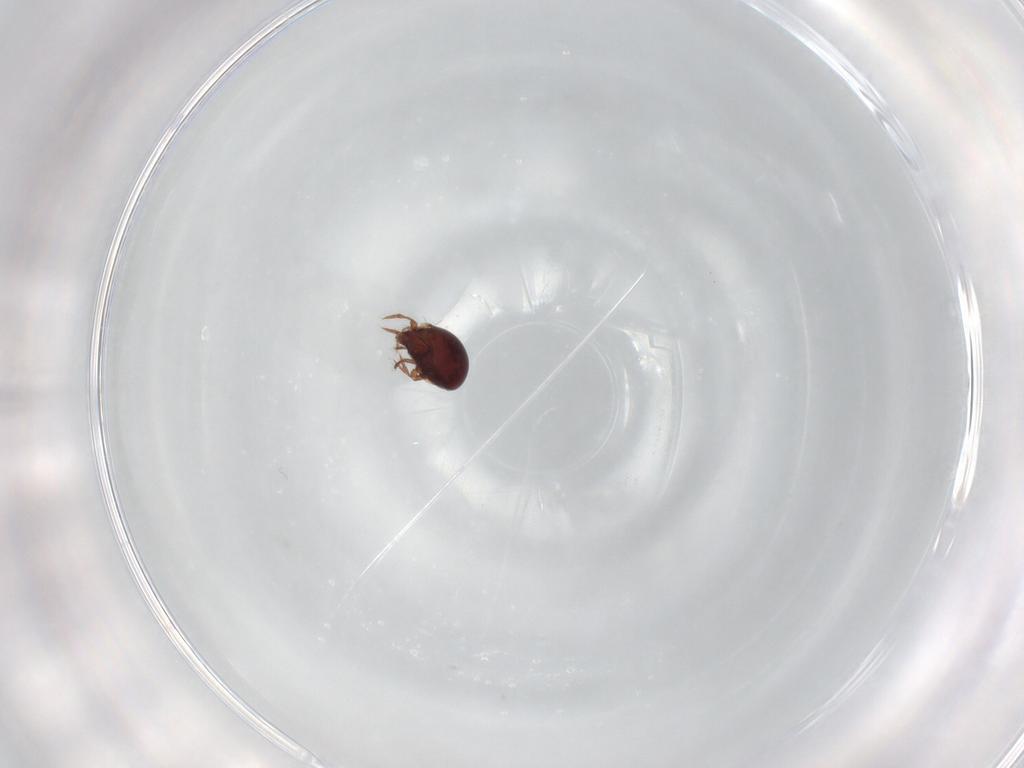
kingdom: Animalia
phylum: Arthropoda
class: Arachnida
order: Sarcoptiformes
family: Ceratozetidae
